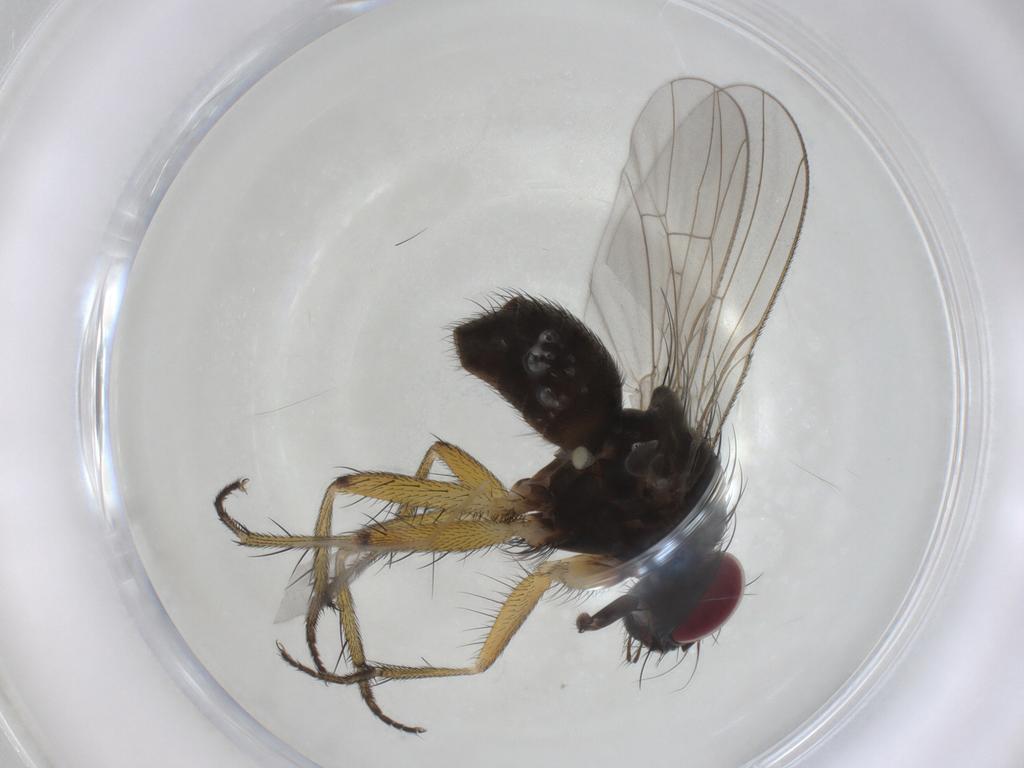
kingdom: Animalia
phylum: Arthropoda
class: Insecta
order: Diptera
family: Muscidae
